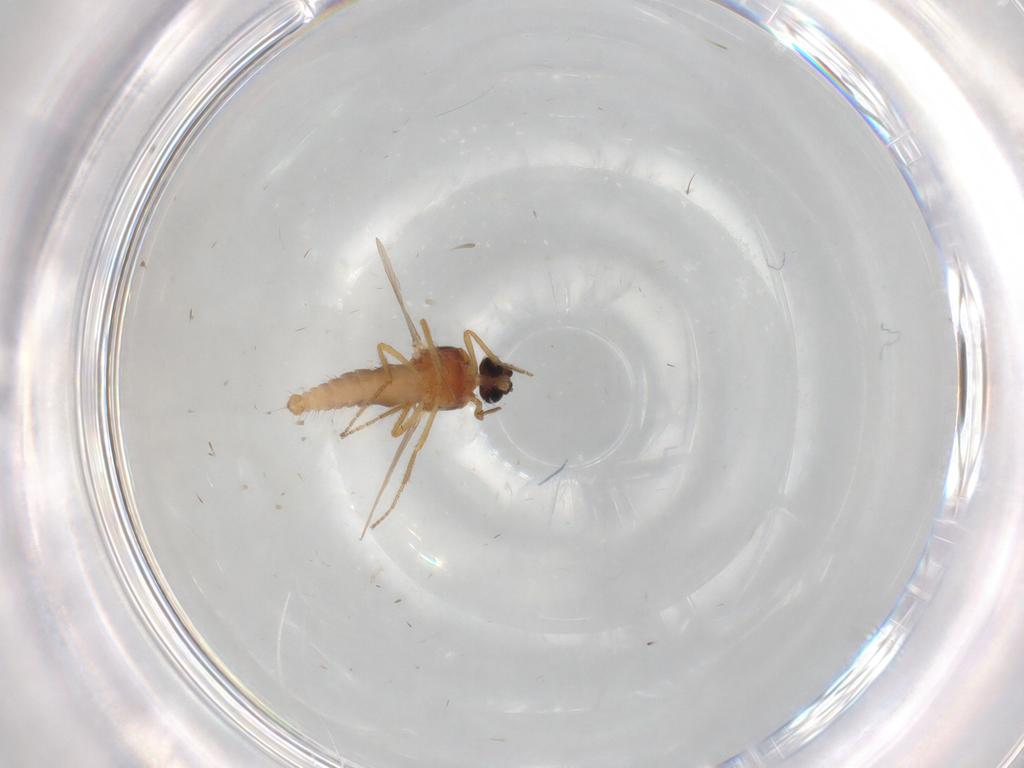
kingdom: Animalia
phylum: Arthropoda
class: Insecta
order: Diptera
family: Ceratopogonidae
